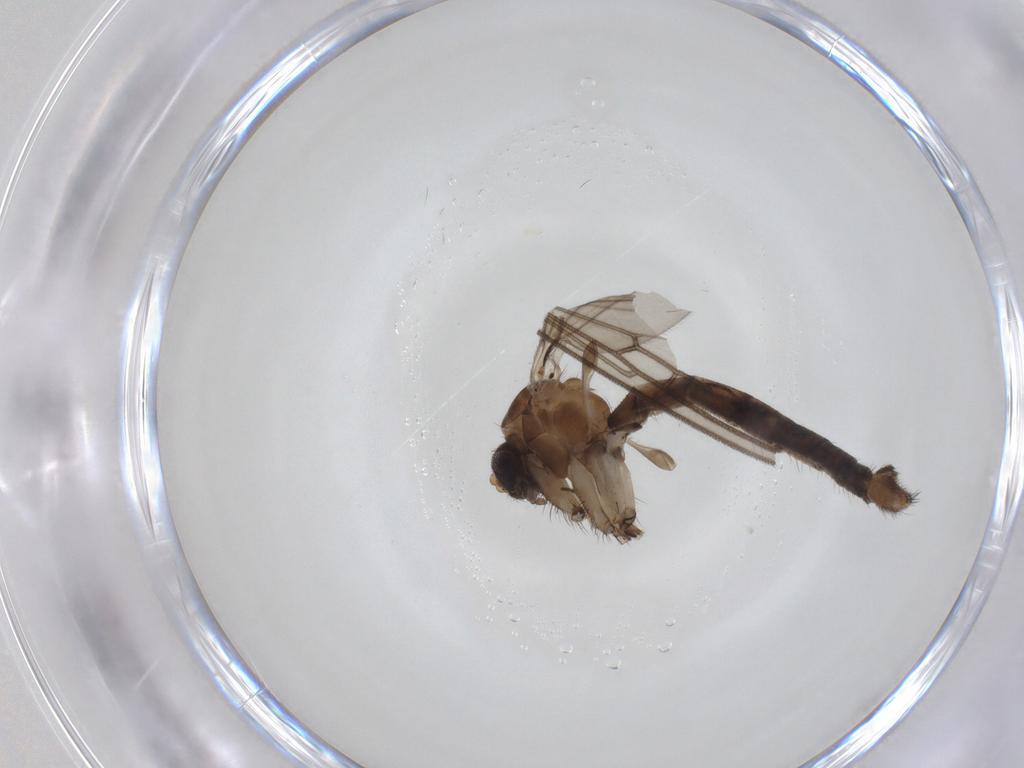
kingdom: Animalia
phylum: Arthropoda
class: Insecta
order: Diptera
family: Mycetophilidae
